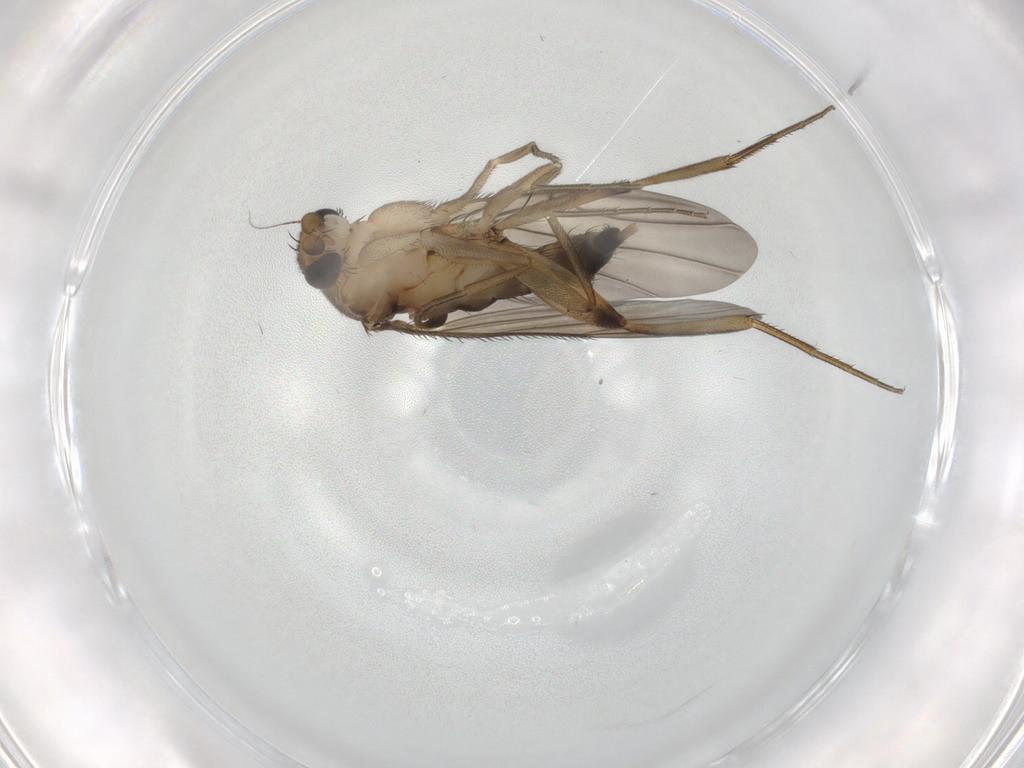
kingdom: Animalia
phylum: Arthropoda
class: Insecta
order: Diptera
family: Phoridae
